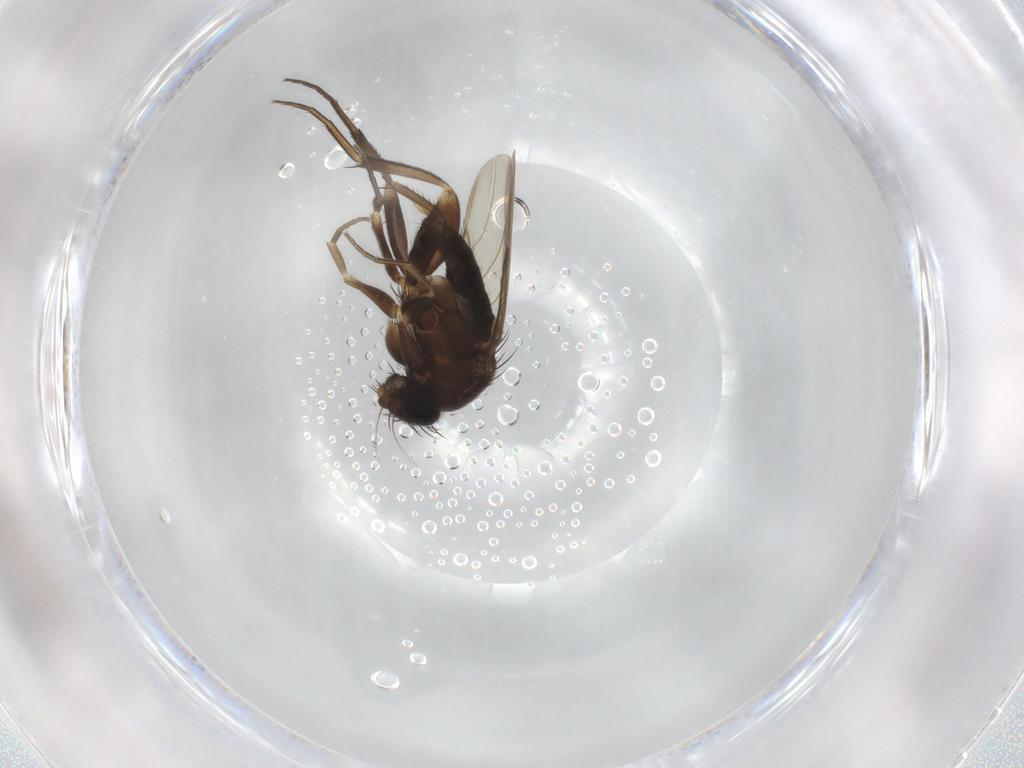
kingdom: Animalia
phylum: Arthropoda
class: Insecta
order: Diptera
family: Phoridae
